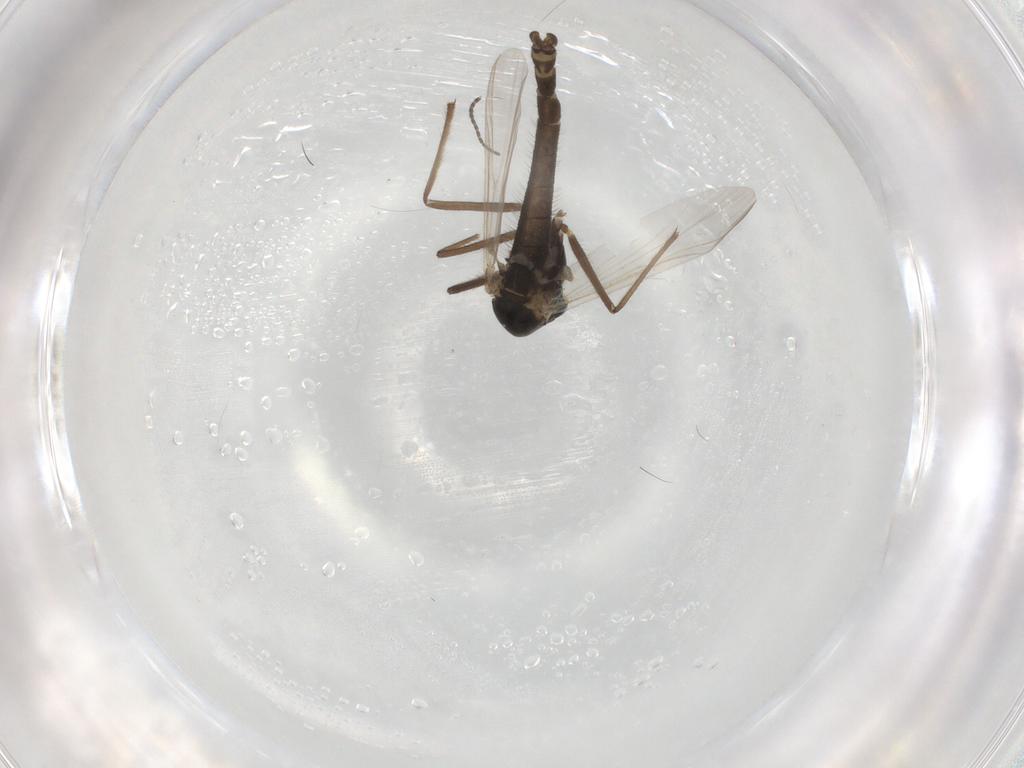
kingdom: Animalia
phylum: Arthropoda
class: Insecta
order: Diptera
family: Chironomidae
